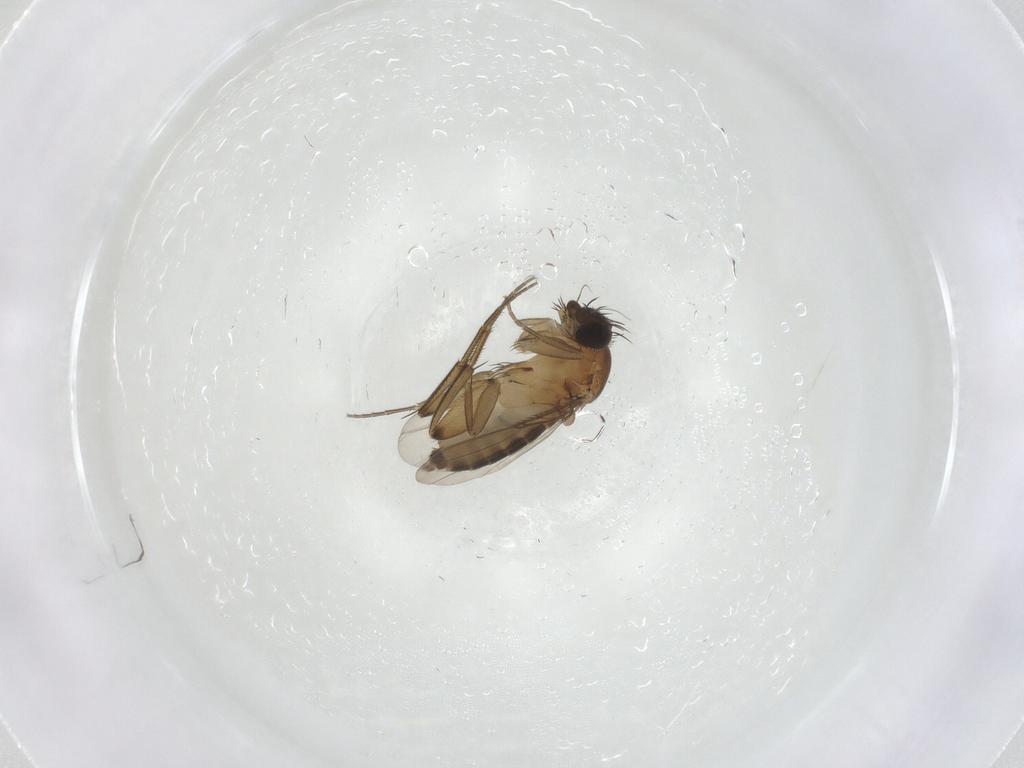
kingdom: Animalia
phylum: Arthropoda
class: Insecta
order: Diptera
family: Phoridae
